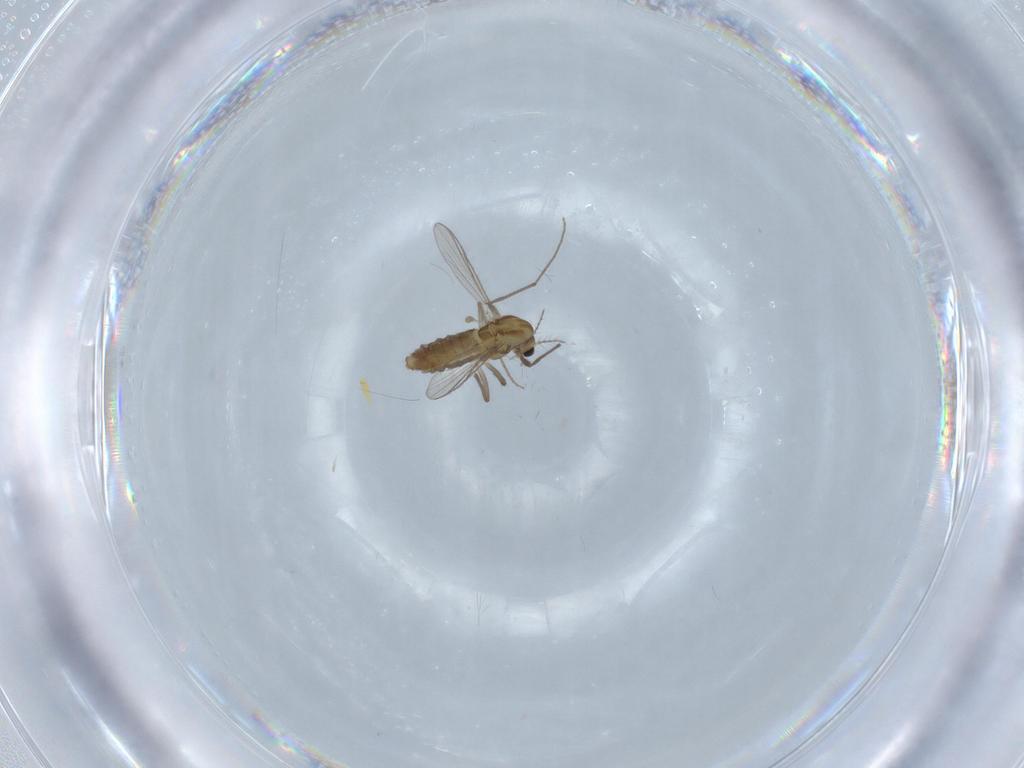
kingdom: Animalia
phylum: Arthropoda
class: Insecta
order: Diptera
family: Chironomidae
